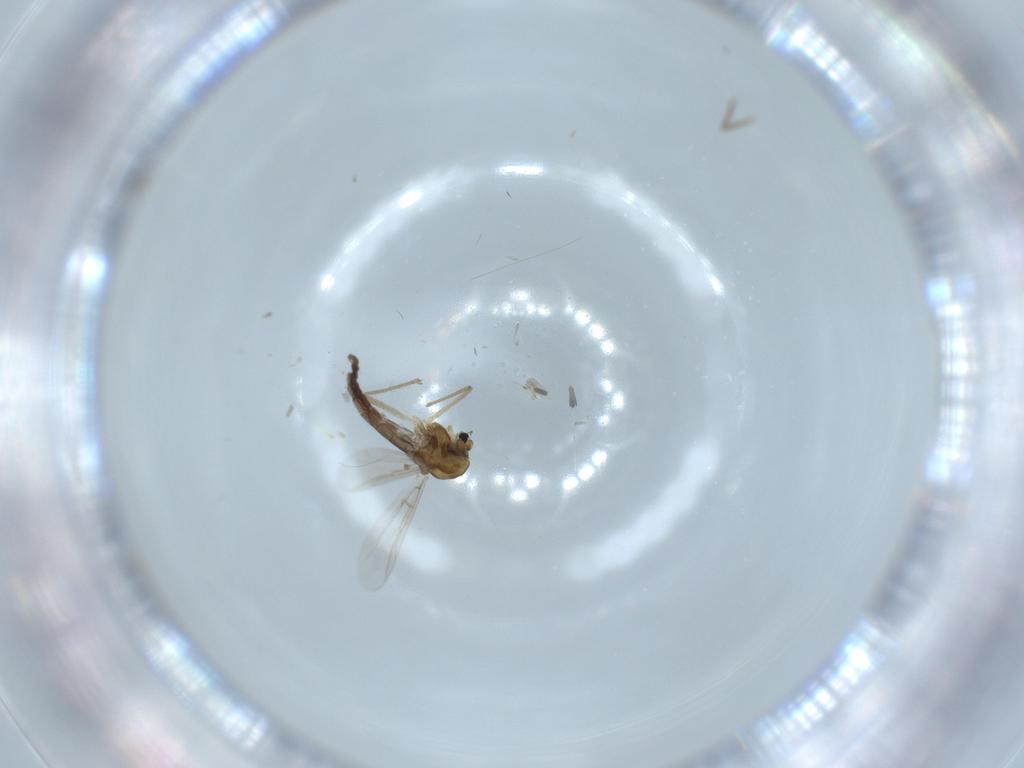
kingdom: Animalia
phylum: Arthropoda
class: Insecta
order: Diptera
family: Chironomidae
